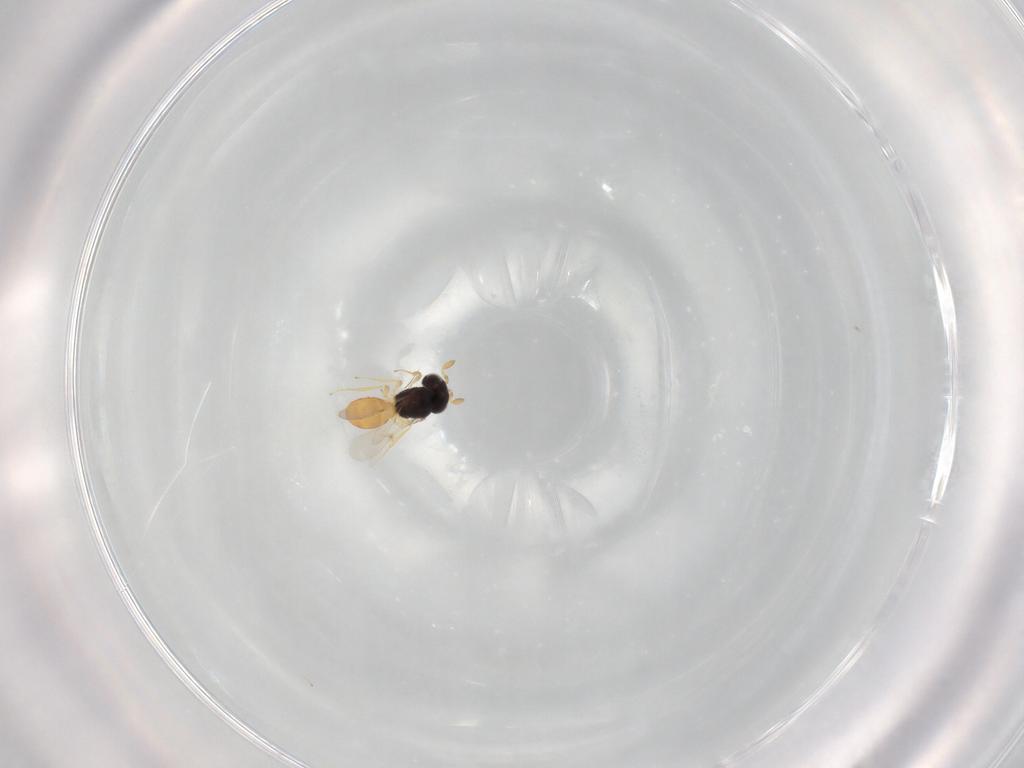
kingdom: Animalia
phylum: Arthropoda
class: Insecta
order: Hymenoptera
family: Scelionidae
